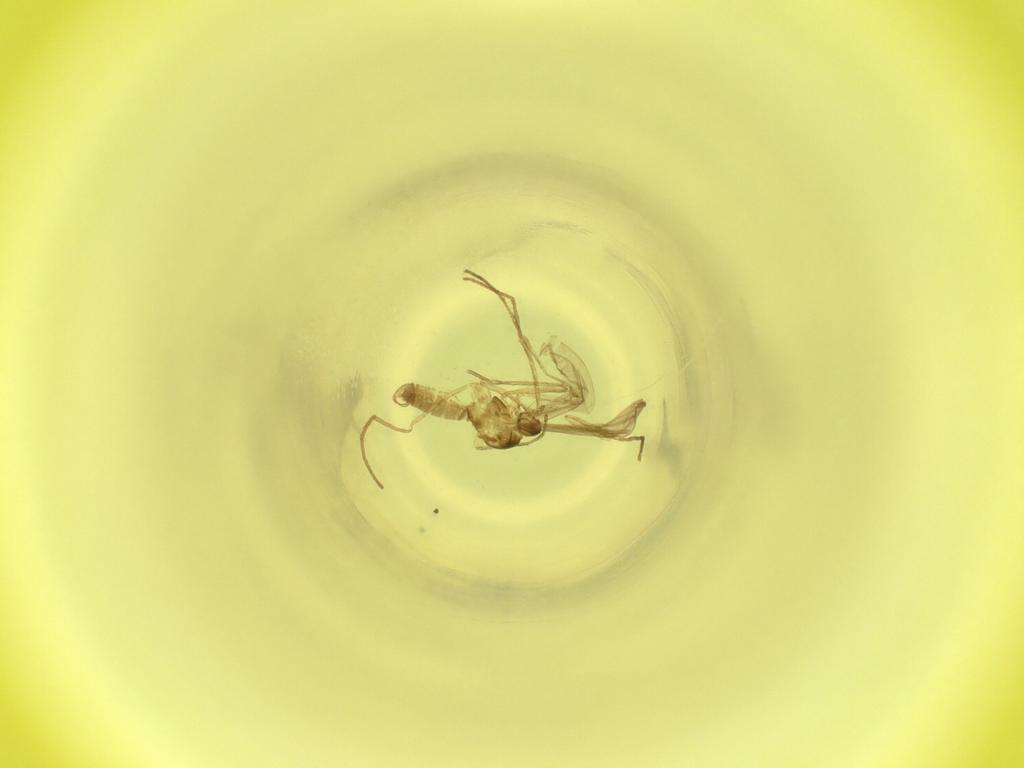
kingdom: Animalia
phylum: Arthropoda
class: Insecta
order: Diptera
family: Cecidomyiidae
